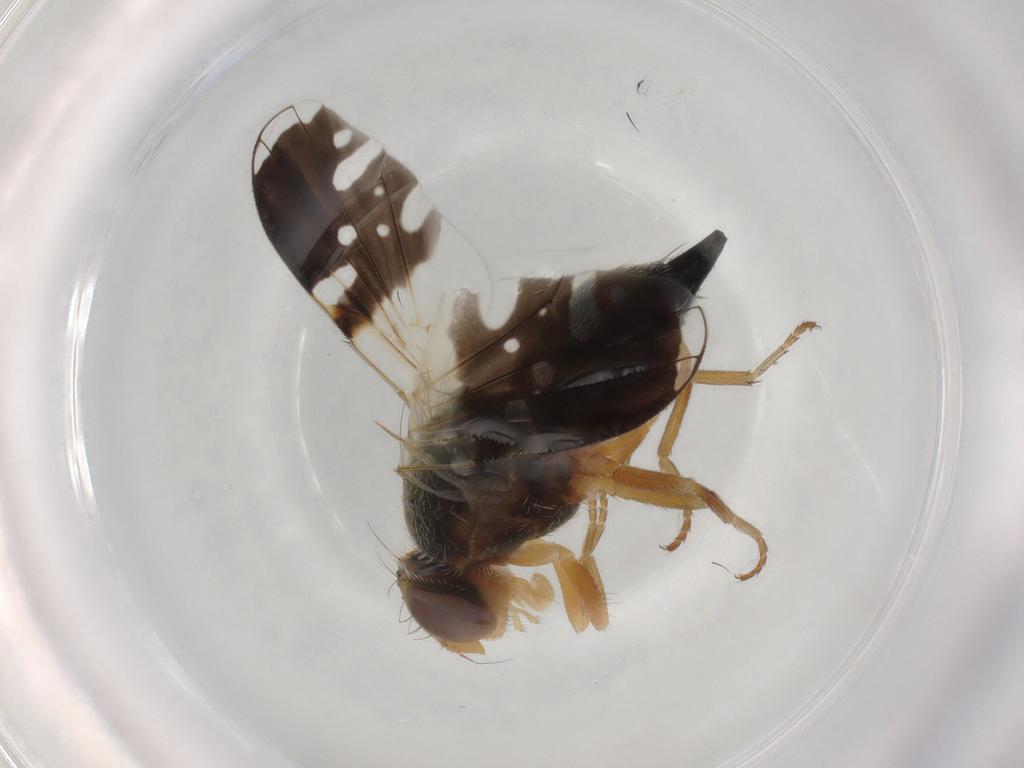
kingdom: Animalia
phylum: Arthropoda
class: Insecta
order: Diptera
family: Tephritidae
